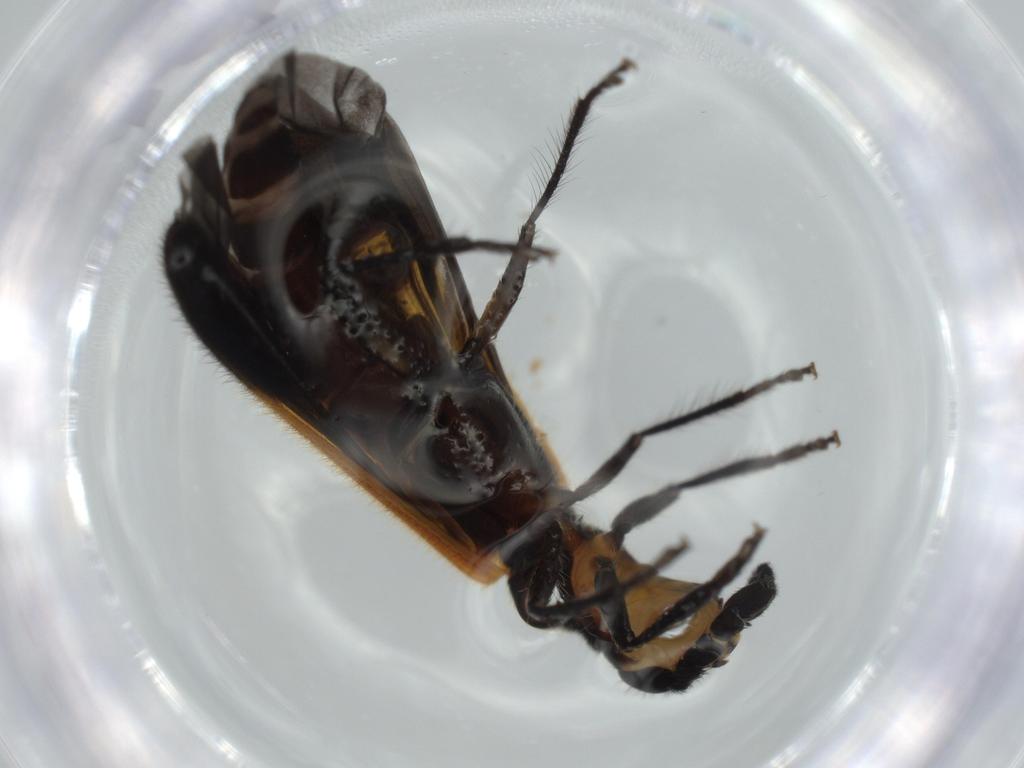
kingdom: Animalia
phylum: Arthropoda
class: Insecta
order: Coleoptera
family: Cleridae
